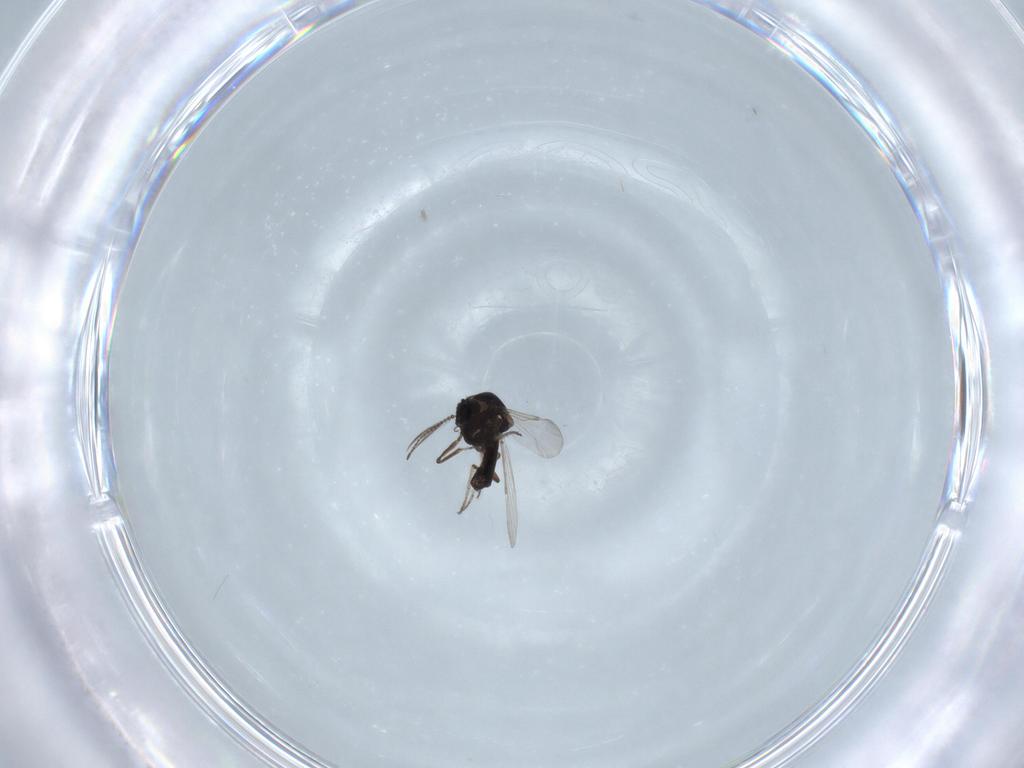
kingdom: Animalia
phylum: Arthropoda
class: Insecta
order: Diptera
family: Ceratopogonidae
